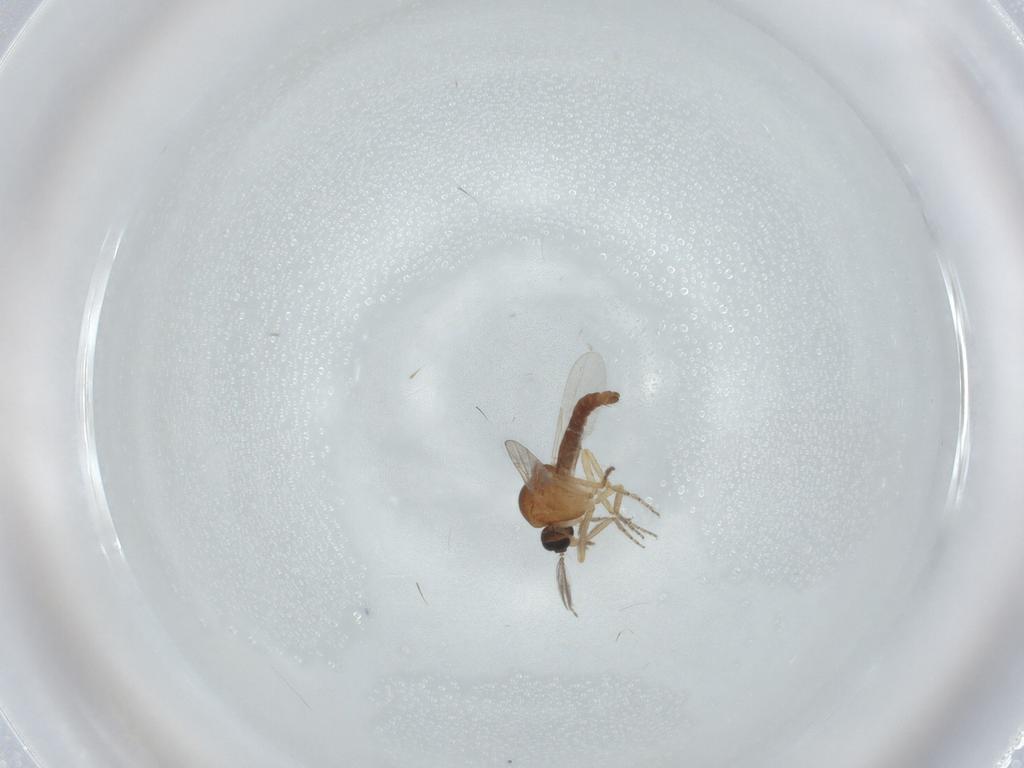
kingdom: Animalia
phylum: Arthropoda
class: Insecta
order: Diptera
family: Ceratopogonidae
